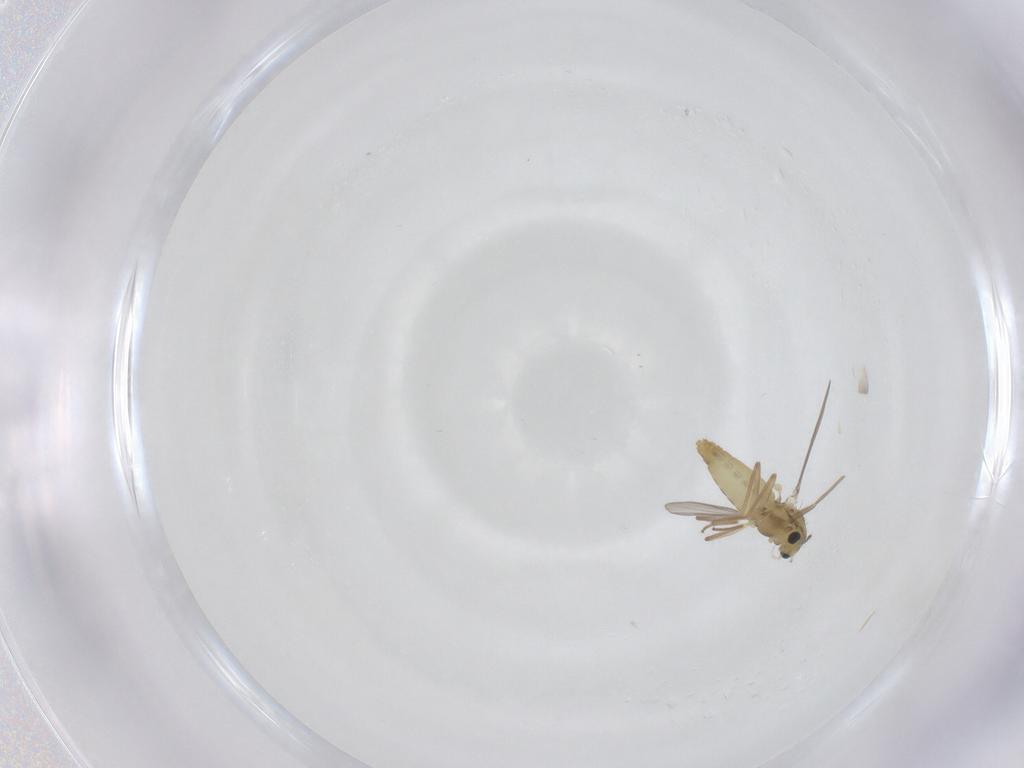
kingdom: Animalia
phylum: Arthropoda
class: Insecta
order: Diptera
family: Chironomidae
